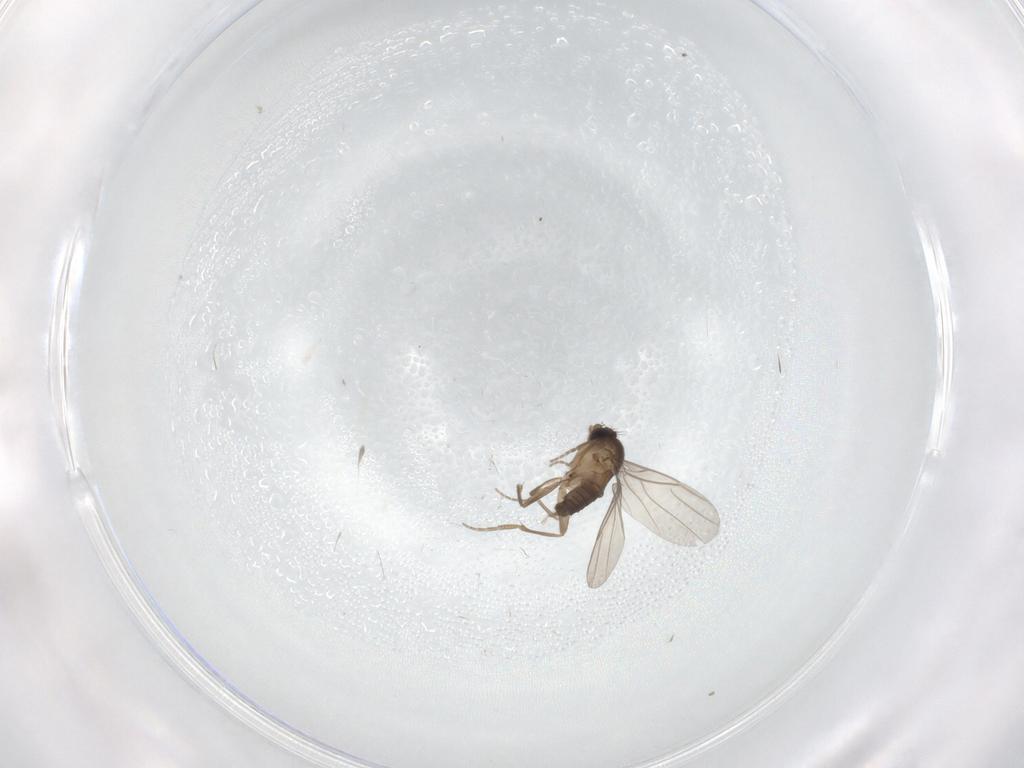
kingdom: Animalia
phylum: Arthropoda
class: Insecta
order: Diptera
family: Phoridae
